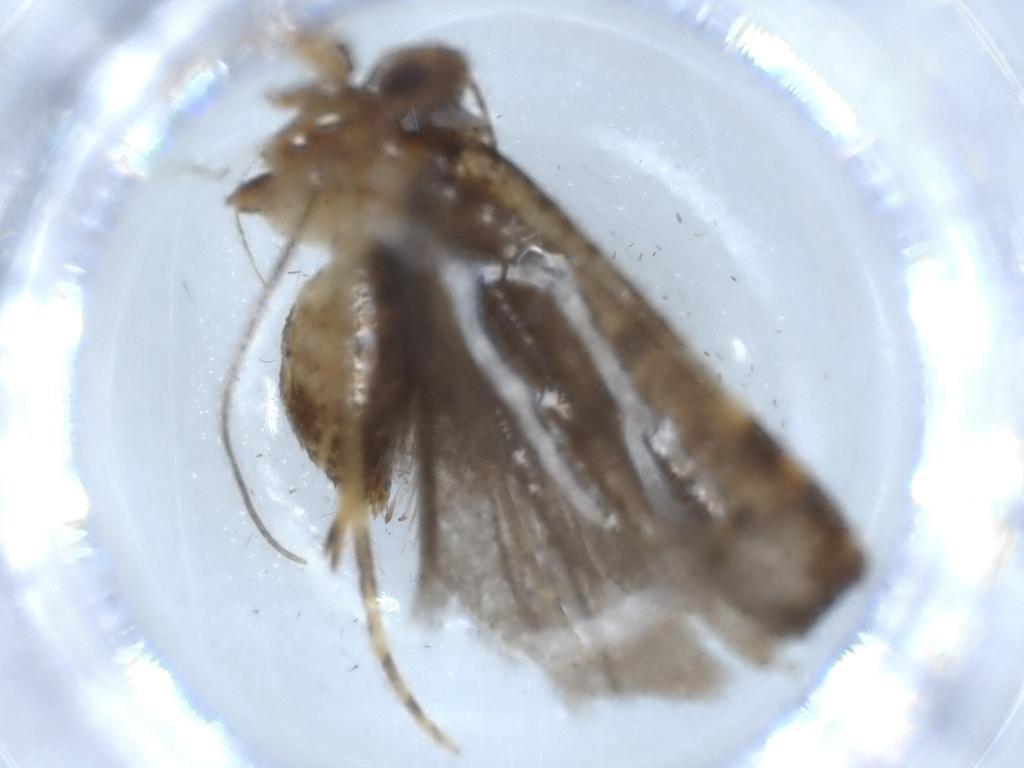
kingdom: Animalia
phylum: Arthropoda
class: Insecta
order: Lepidoptera
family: Autostichidae
